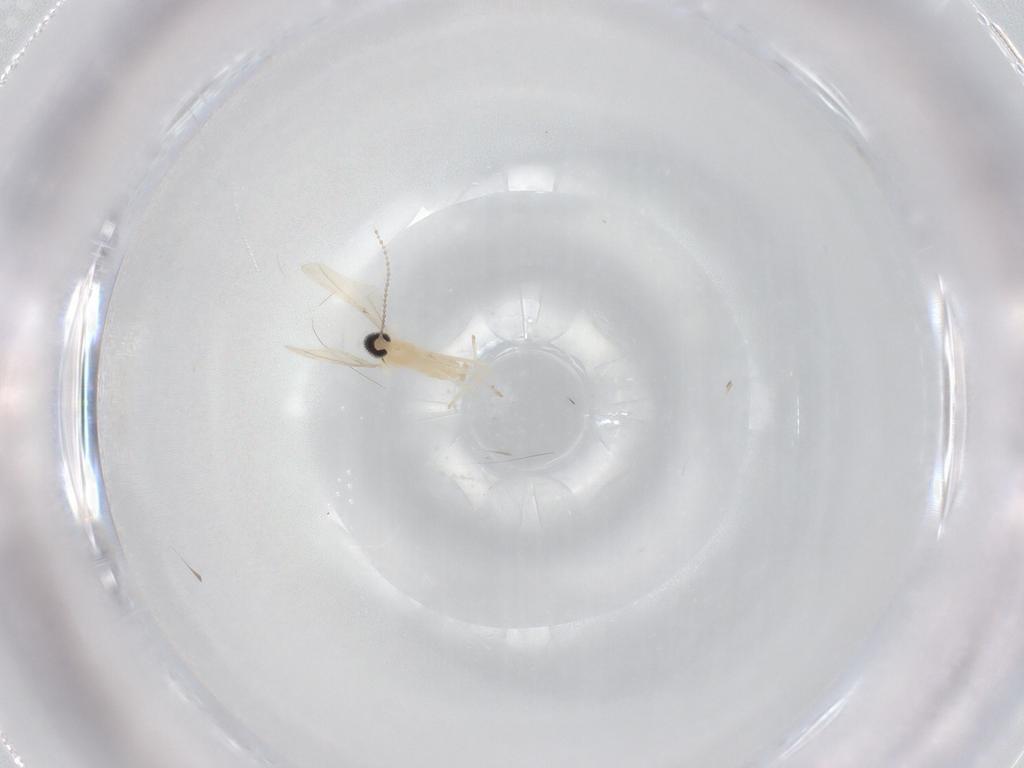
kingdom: Animalia
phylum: Arthropoda
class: Insecta
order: Diptera
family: Cecidomyiidae
